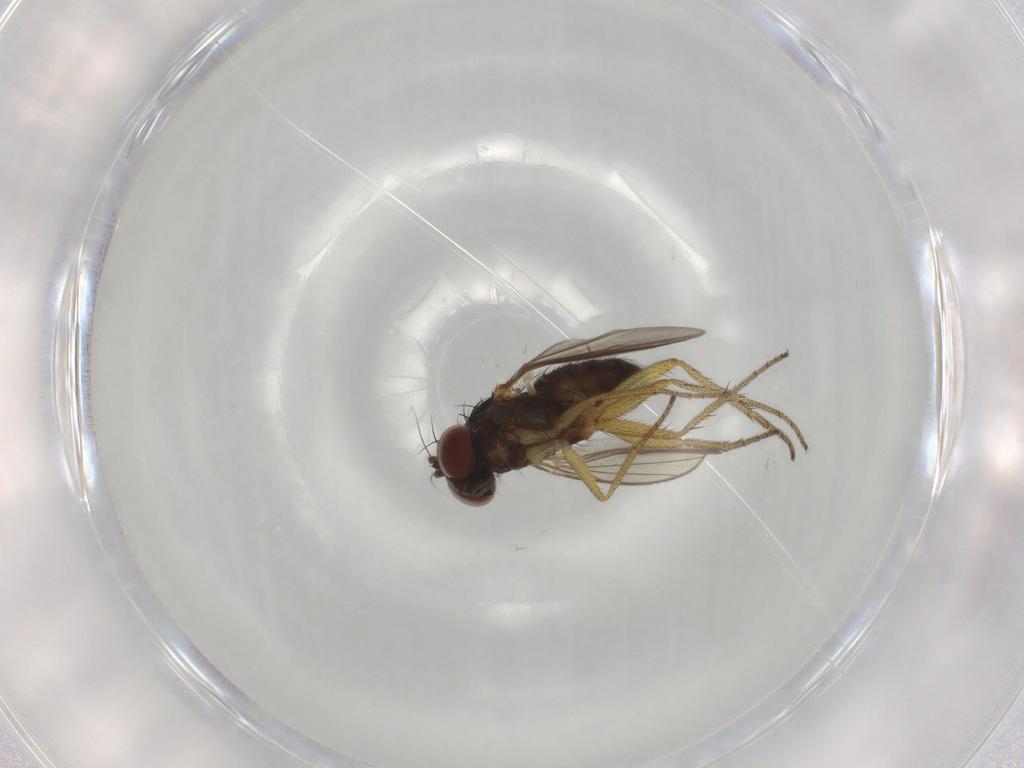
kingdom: Animalia
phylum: Arthropoda
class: Insecta
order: Diptera
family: Dolichopodidae
